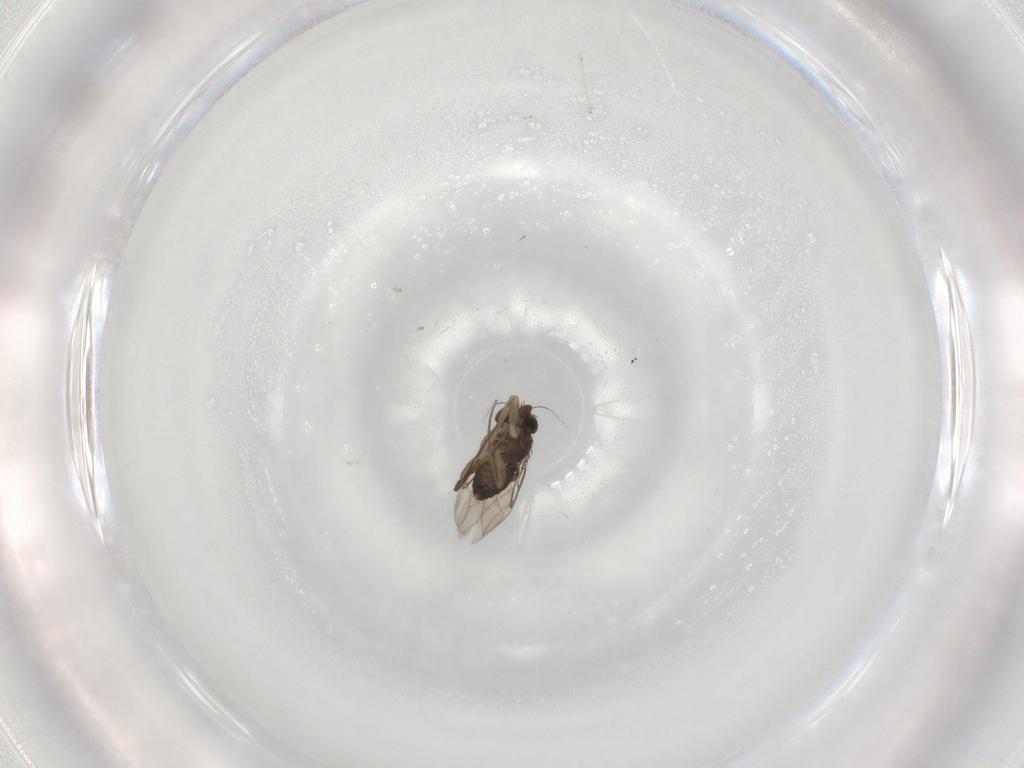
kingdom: Animalia
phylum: Arthropoda
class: Insecta
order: Diptera
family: Phoridae
